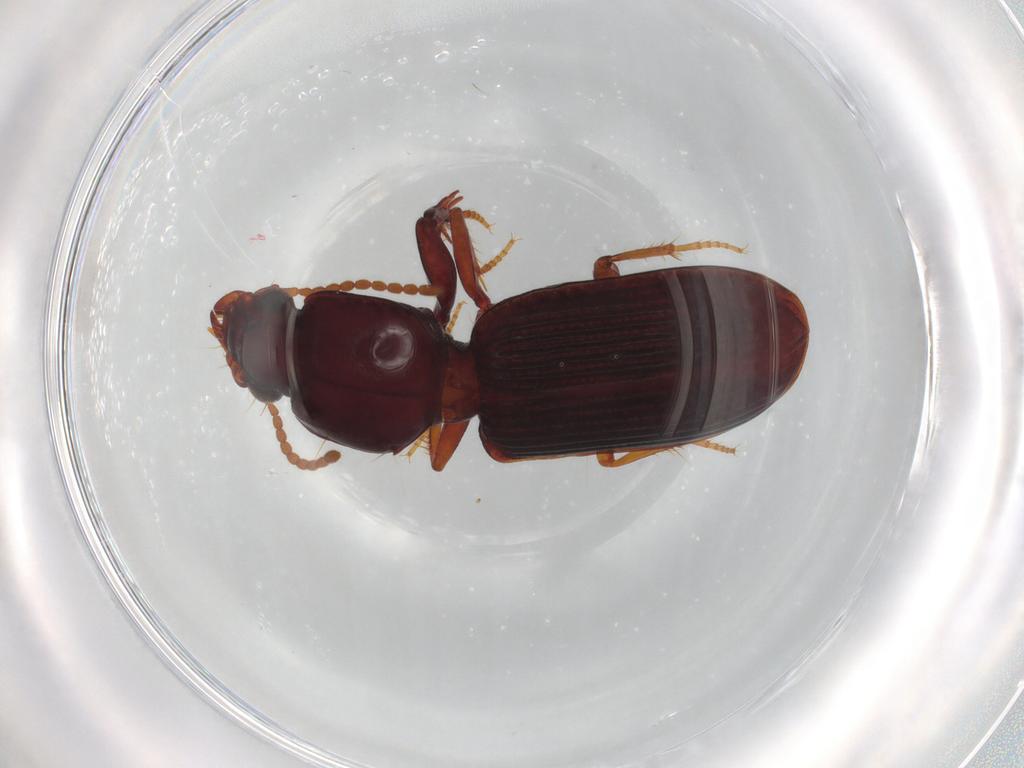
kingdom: Animalia
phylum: Arthropoda
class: Insecta
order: Coleoptera
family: Carabidae
